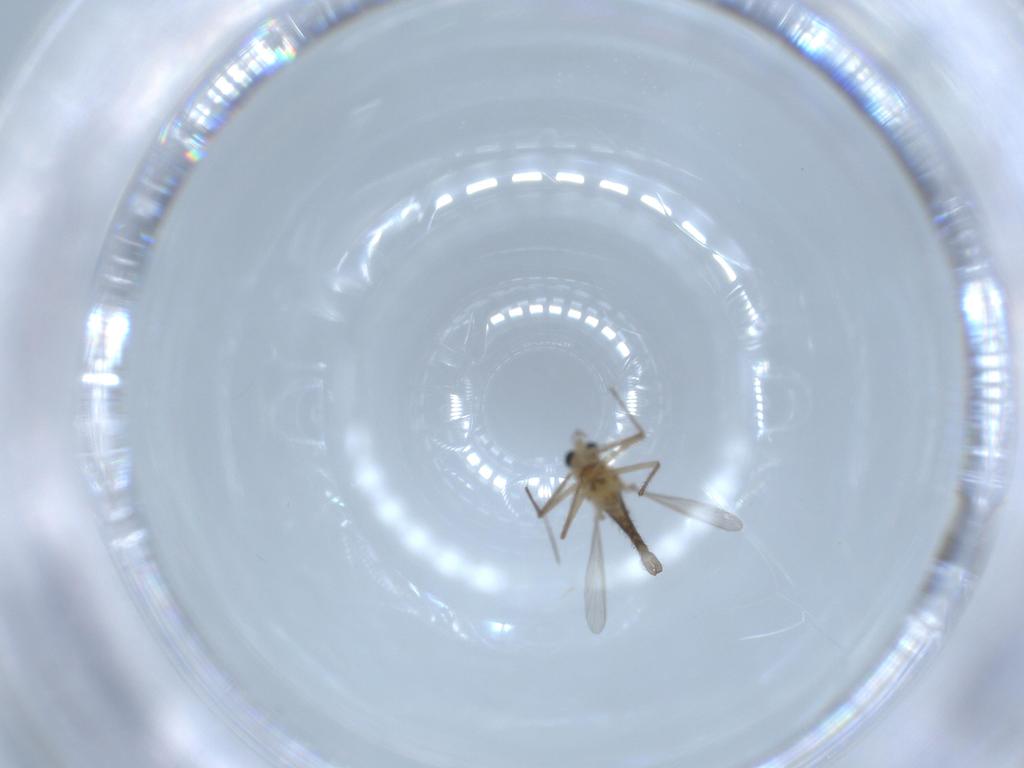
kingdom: Animalia
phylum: Arthropoda
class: Insecta
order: Diptera
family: Chironomidae
